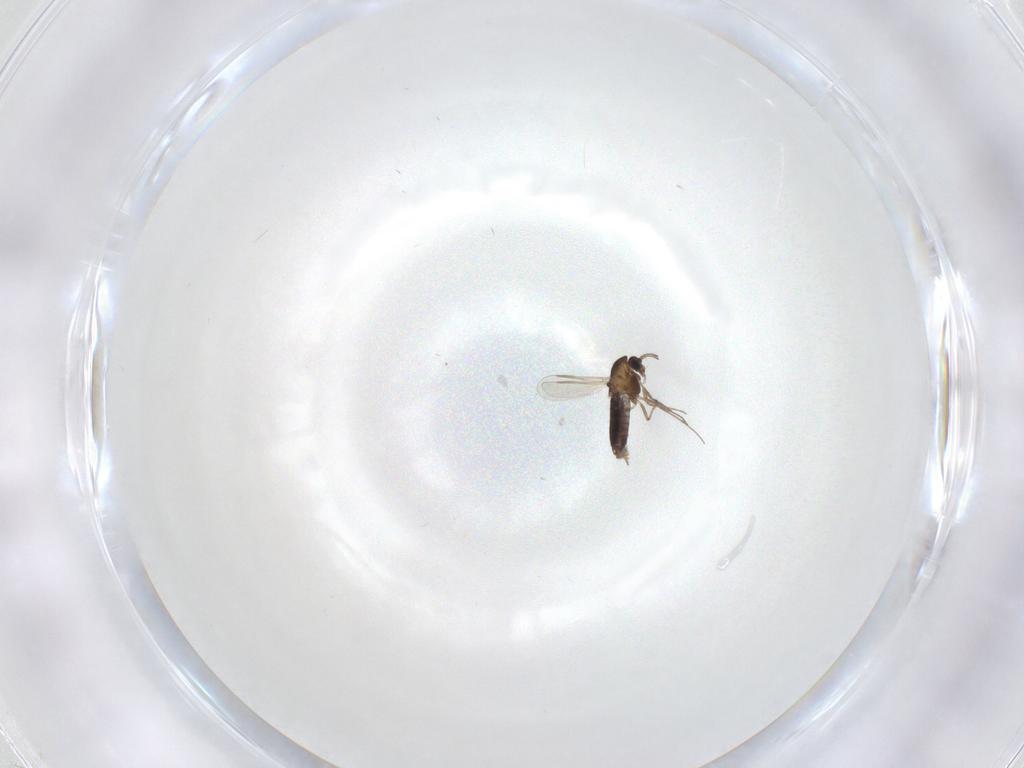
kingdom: Animalia
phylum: Arthropoda
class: Insecta
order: Diptera
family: Chironomidae
